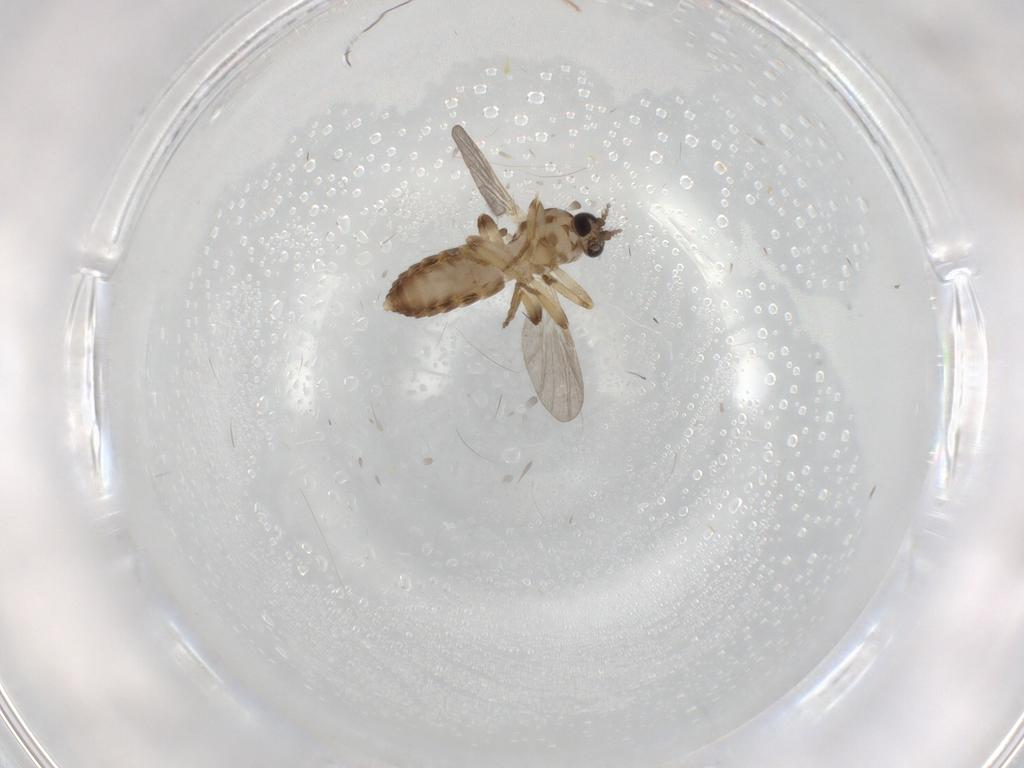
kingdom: Animalia
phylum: Arthropoda
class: Insecta
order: Diptera
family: Ceratopogonidae
